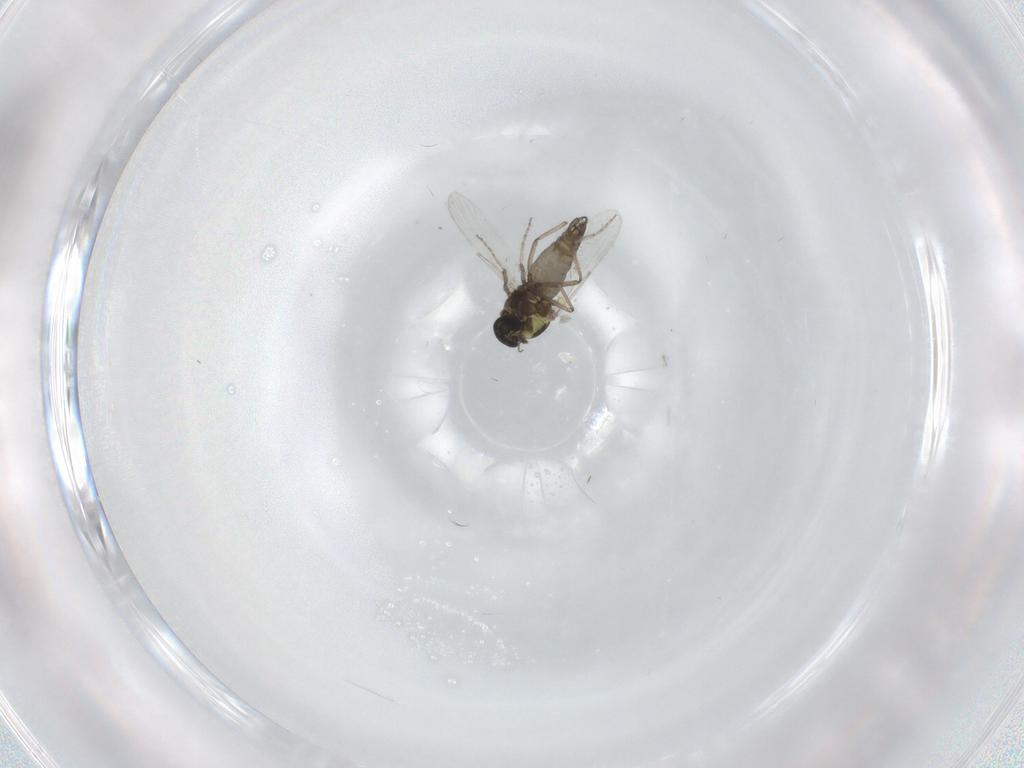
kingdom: Animalia
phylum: Arthropoda
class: Insecta
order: Diptera
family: Ceratopogonidae
